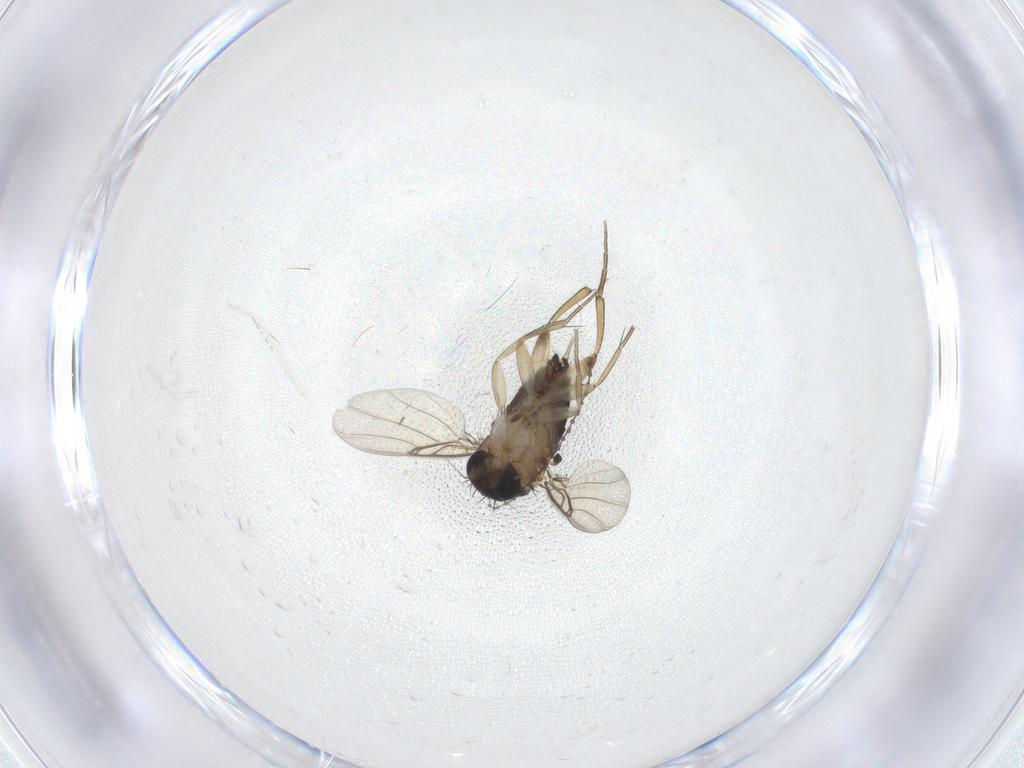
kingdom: Animalia
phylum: Arthropoda
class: Insecta
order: Diptera
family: Phoridae
